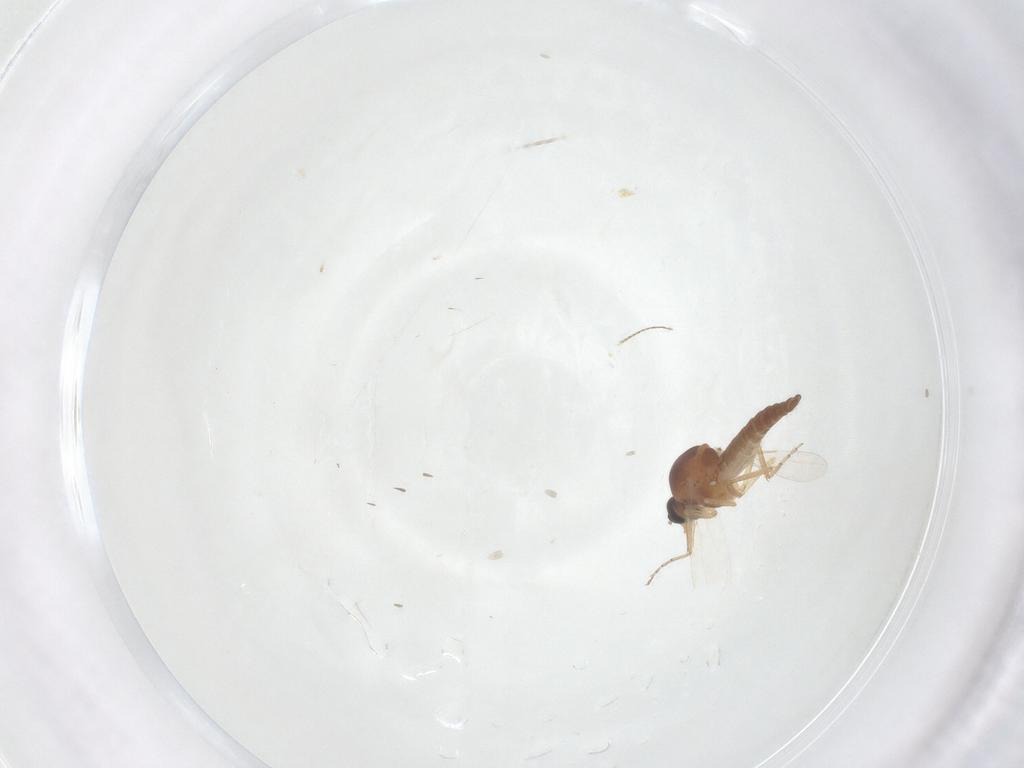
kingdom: Animalia
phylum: Arthropoda
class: Insecta
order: Diptera
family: Ceratopogonidae
